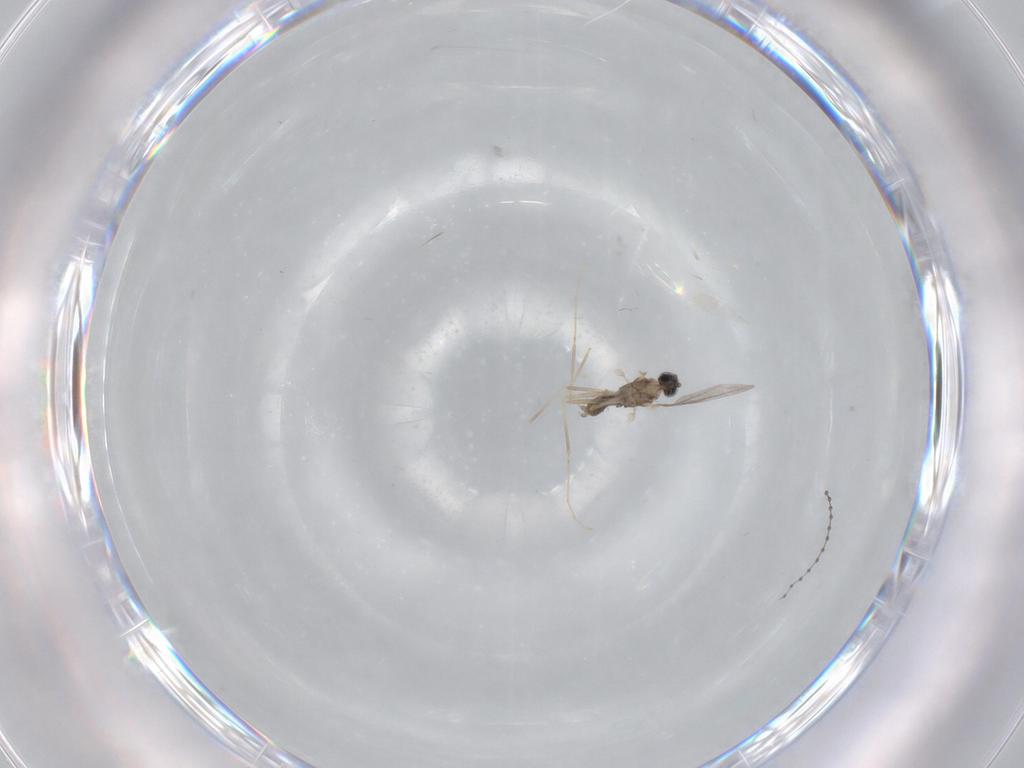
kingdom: Animalia
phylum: Arthropoda
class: Insecta
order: Diptera
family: Cecidomyiidae
